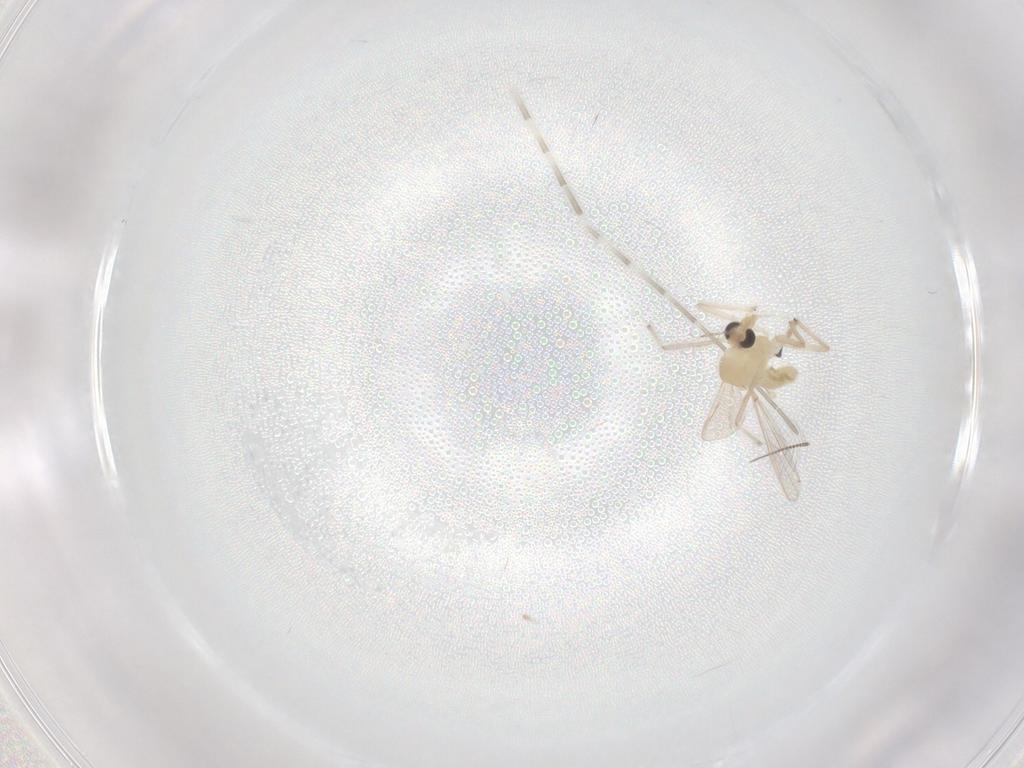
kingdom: Animalia
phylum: Arthropoda
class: Insecta
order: Diptera
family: Chironomidae
